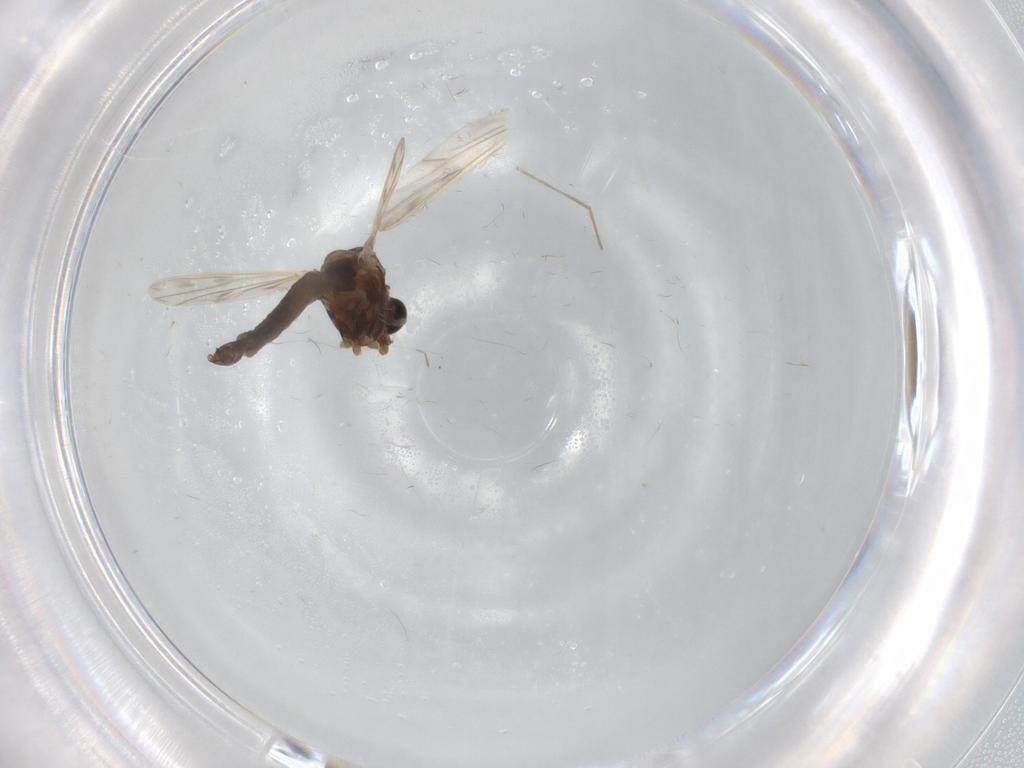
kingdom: Animalia
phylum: Arthropoda
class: Insecta
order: Diptera
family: Chironomidae
